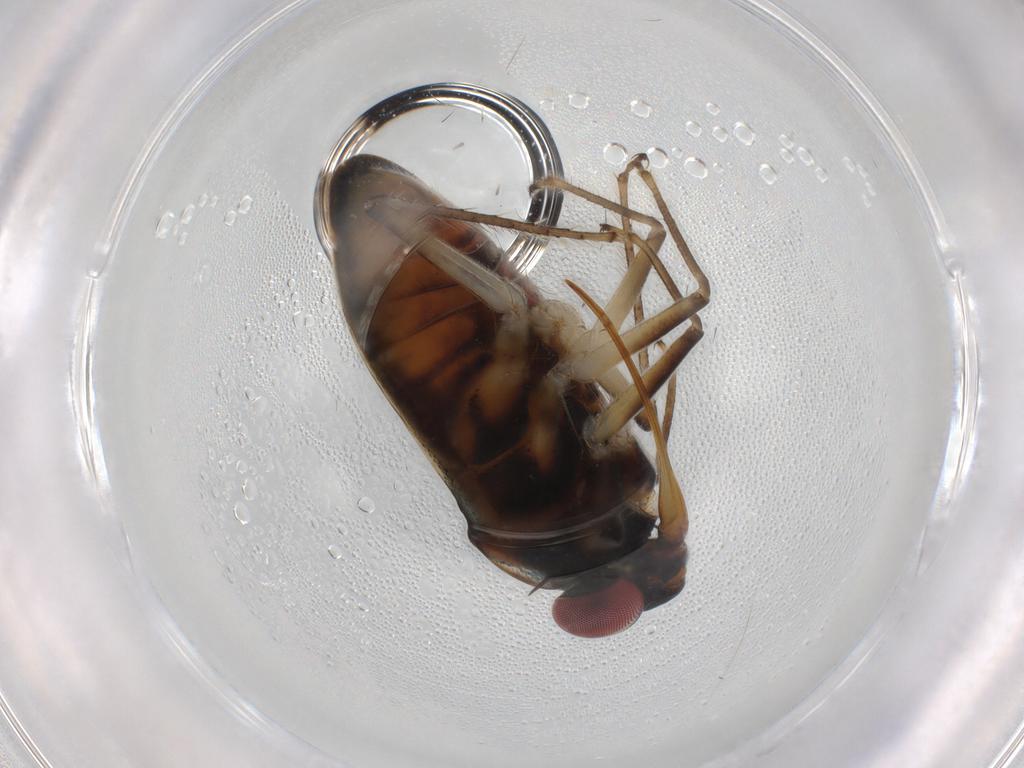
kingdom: Animalia
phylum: Arthropoda
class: Insecta
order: Hemiptera
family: Ochteridae
